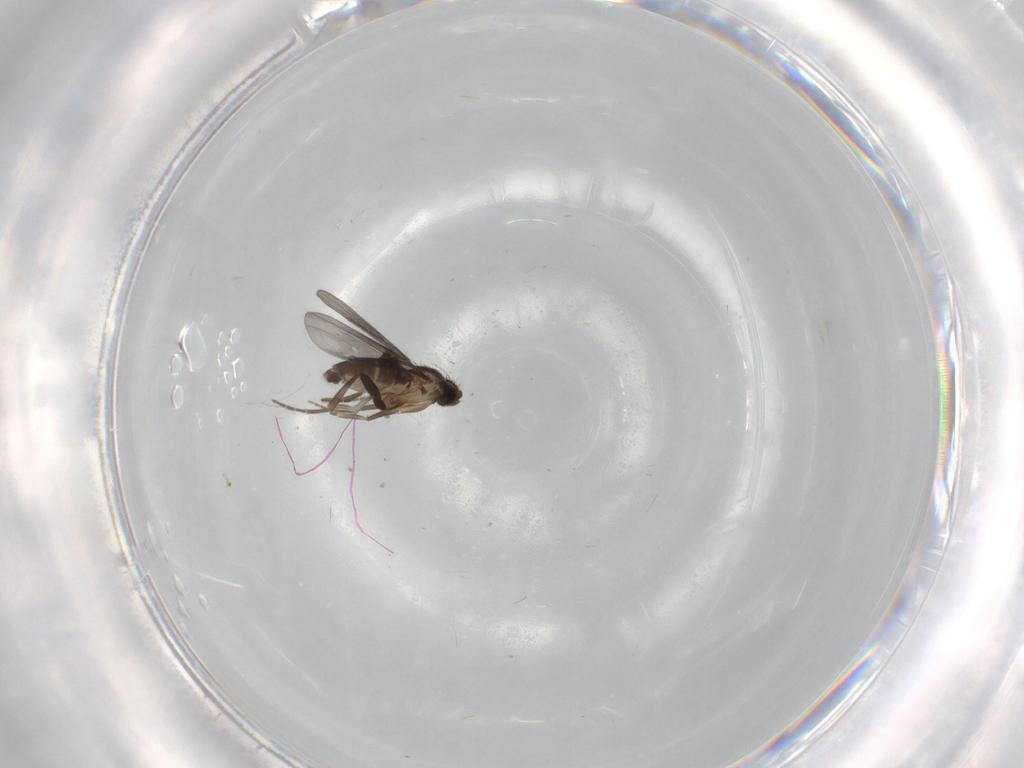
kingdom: Animalia
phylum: Arthropoda
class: Insecta
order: Diptera
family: Phoridae
